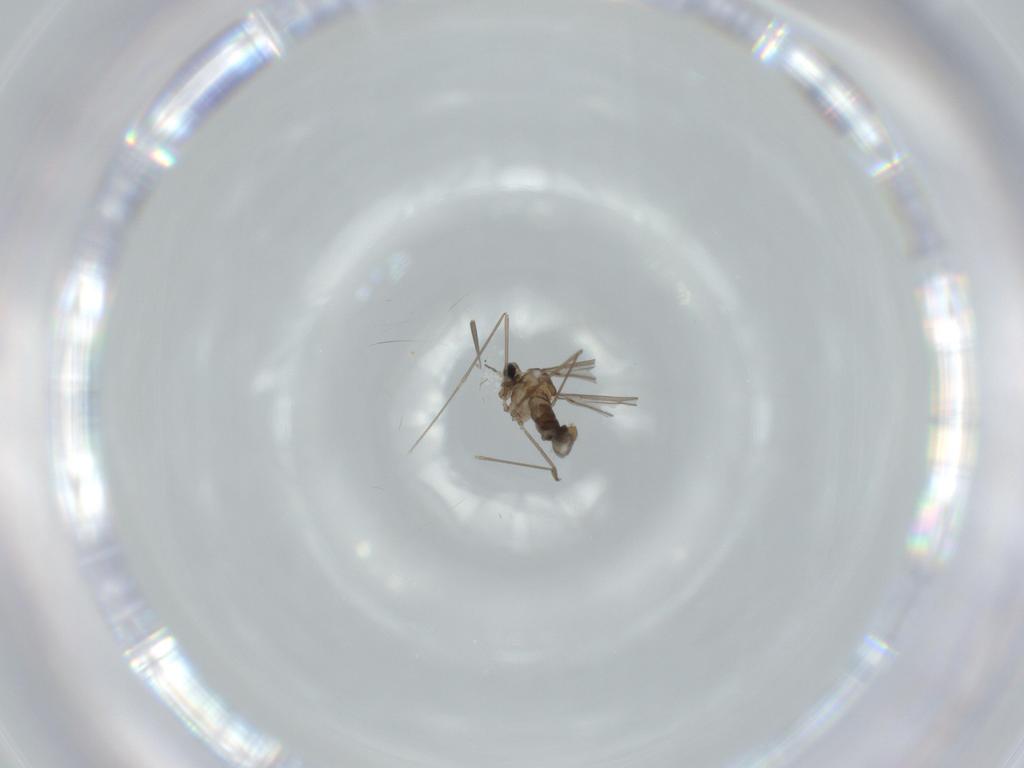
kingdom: Animalia
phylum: Arthropoda
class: Insecta
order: Diptera
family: Cecidomyiidae
